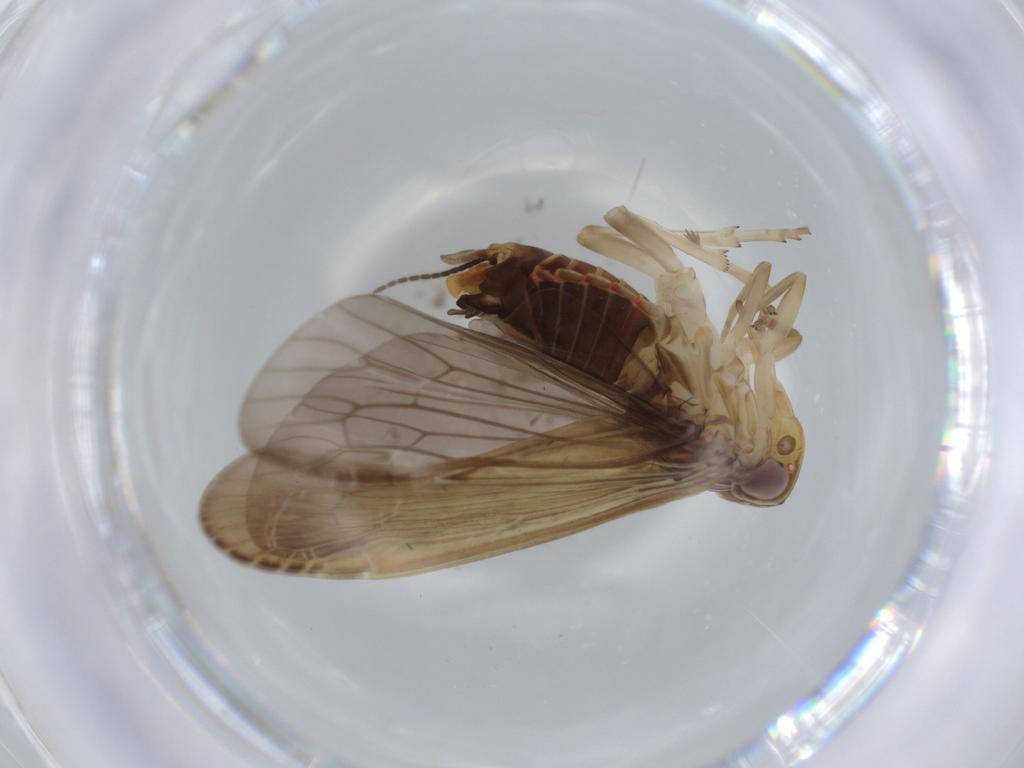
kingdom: Animalia
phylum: Arthropoda
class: Insecta
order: Hemiptera
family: Achilidae
